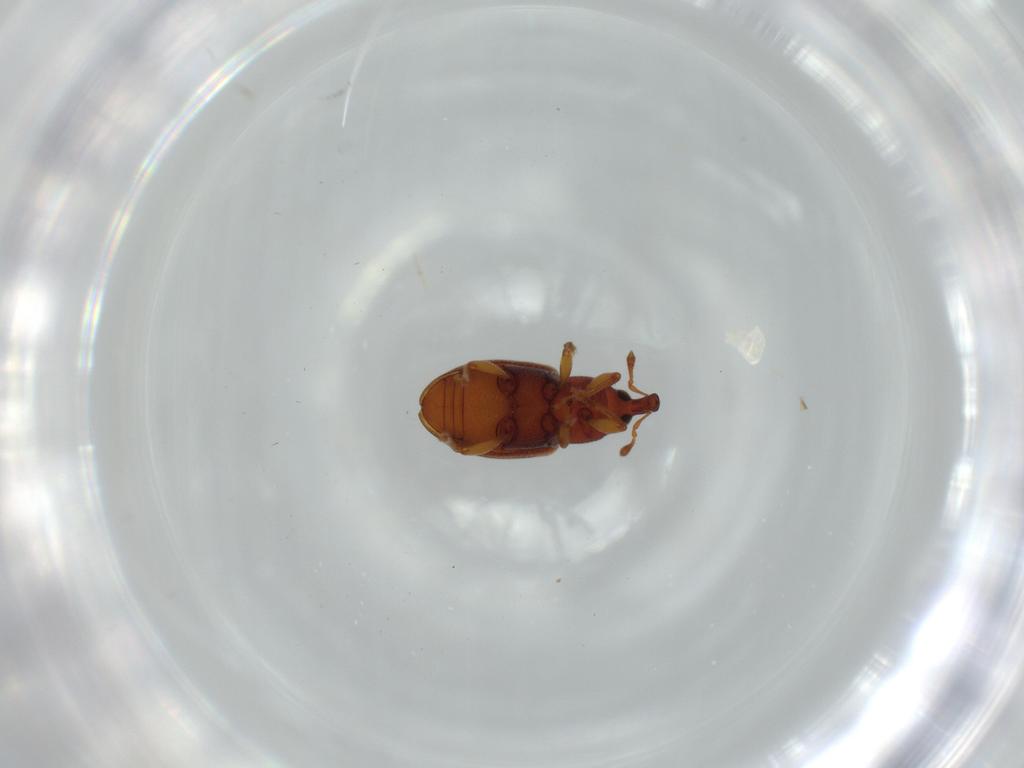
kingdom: Animalia
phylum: Arthropoda
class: Insecta
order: Coleoptera
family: Curculionidae
